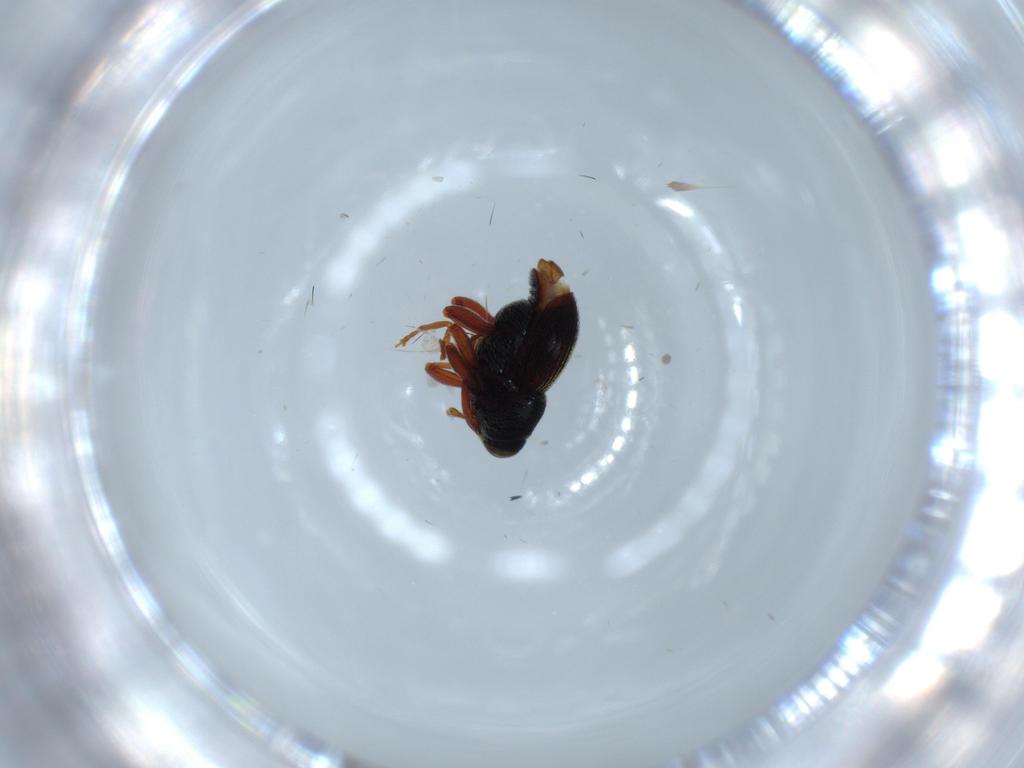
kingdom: Animalia
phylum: Arthropoda
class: Insecta
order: Coleoptera
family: Curculionidae
